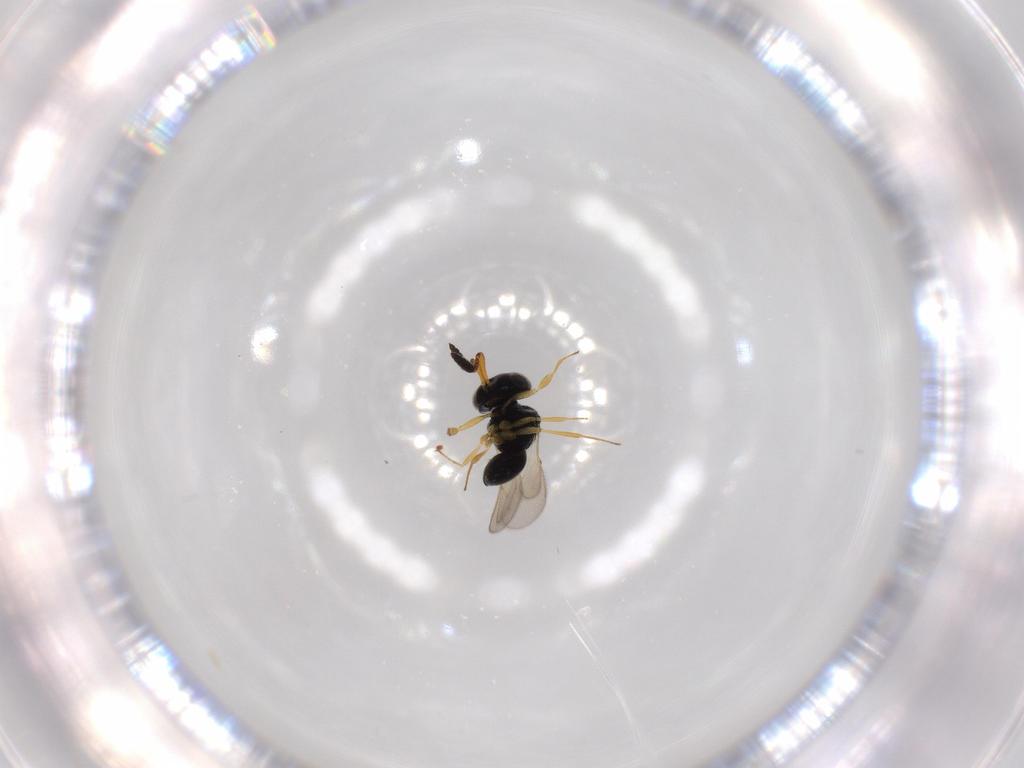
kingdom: Animalia
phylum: Arthropoda
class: Insecta
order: Hymenoptera
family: Scelionidae
